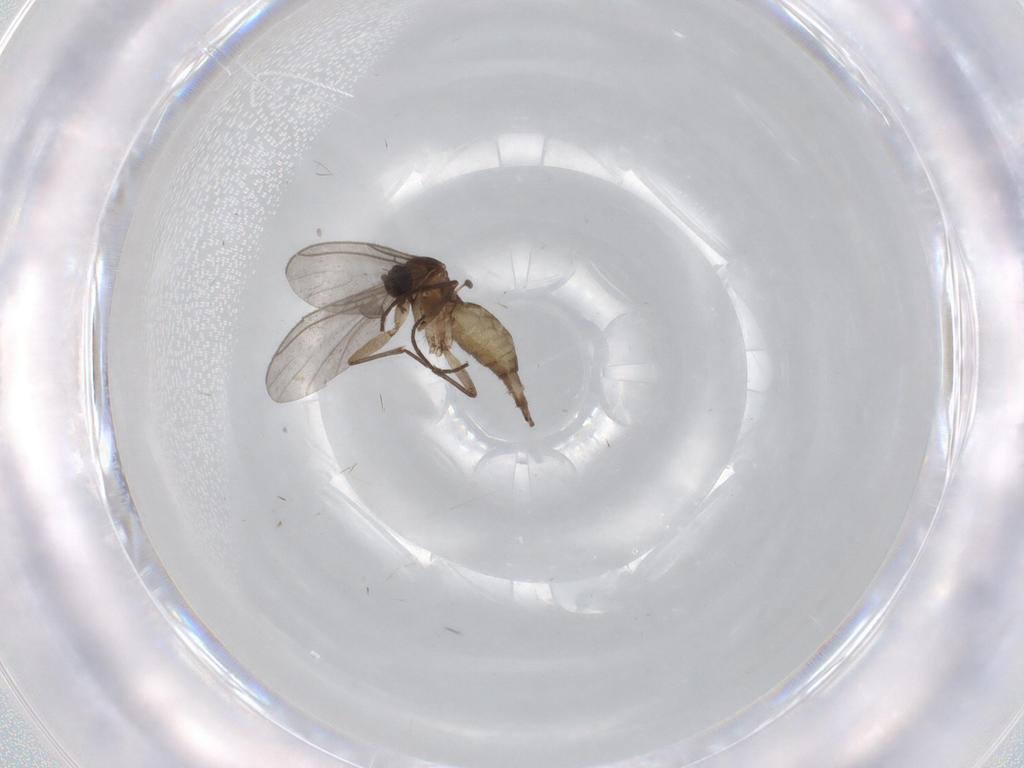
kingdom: Animalia
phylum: Arthropoda
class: Insecta
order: Diptera
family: Sciaridae
